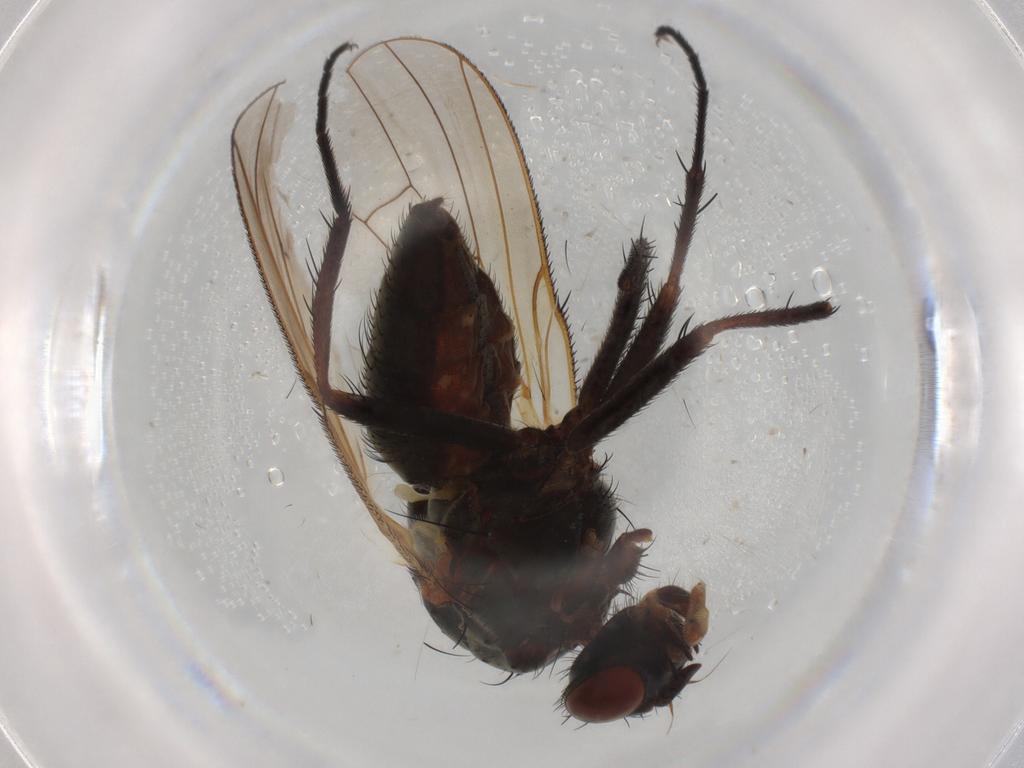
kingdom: Animalia
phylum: Arthropoda
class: Insecta
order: Diptera
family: Anthomyiidae
